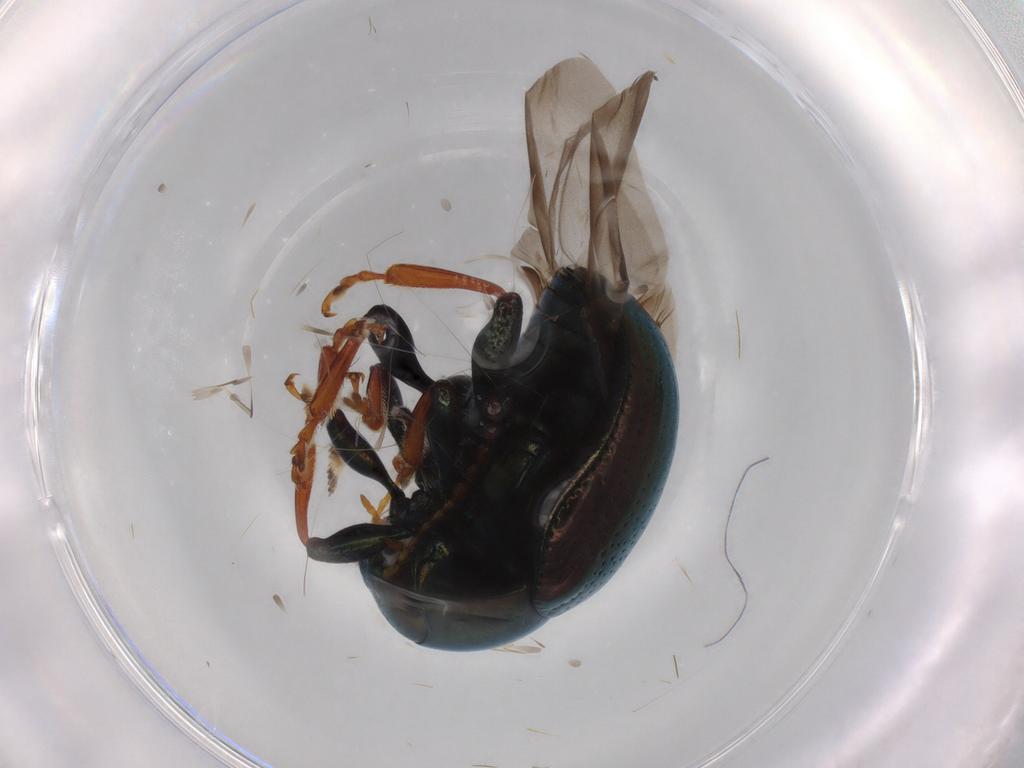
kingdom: Animalia
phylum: Arthropoda
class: Insecta
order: Coleoptera
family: Chrysomelidae
